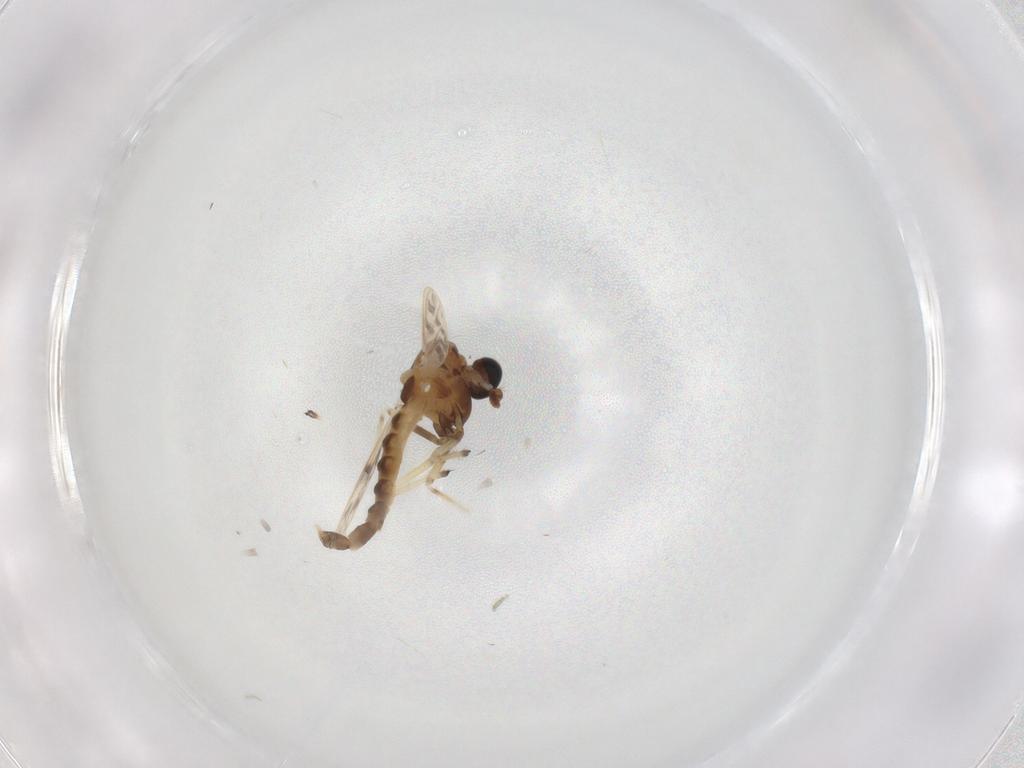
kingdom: Animalia
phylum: Arthropoda
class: Insecta
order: Diptera
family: Chironomidae
